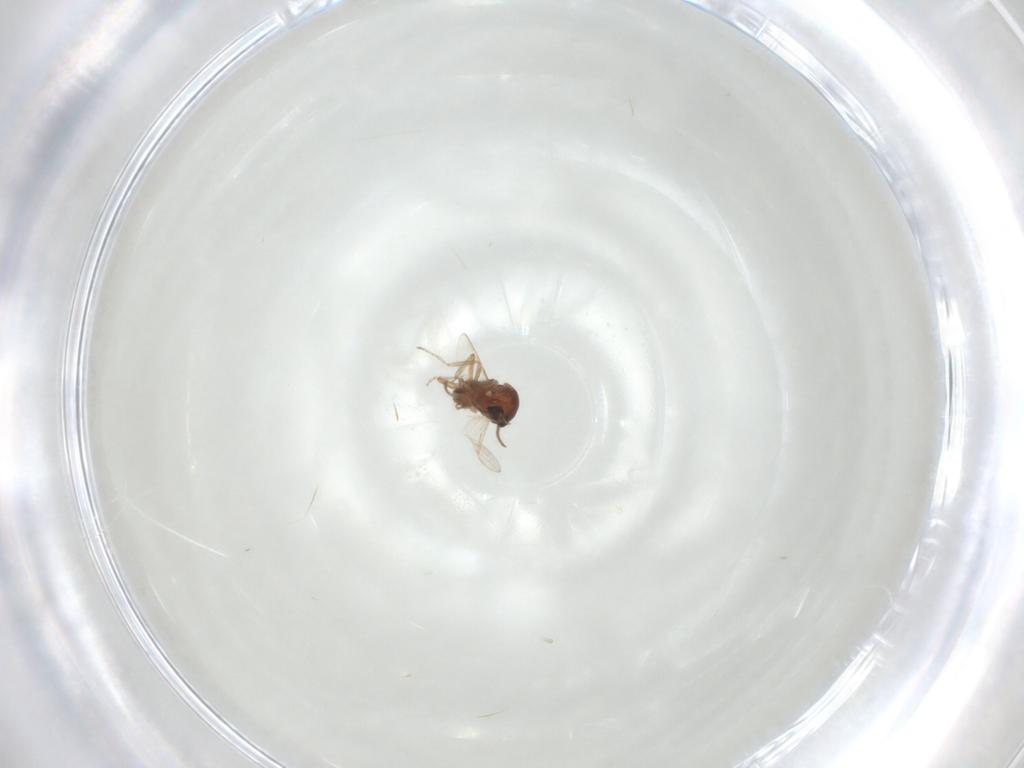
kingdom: Animalia
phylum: Arthropoda
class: Insecta
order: Diptera
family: Ceratopogonidae
